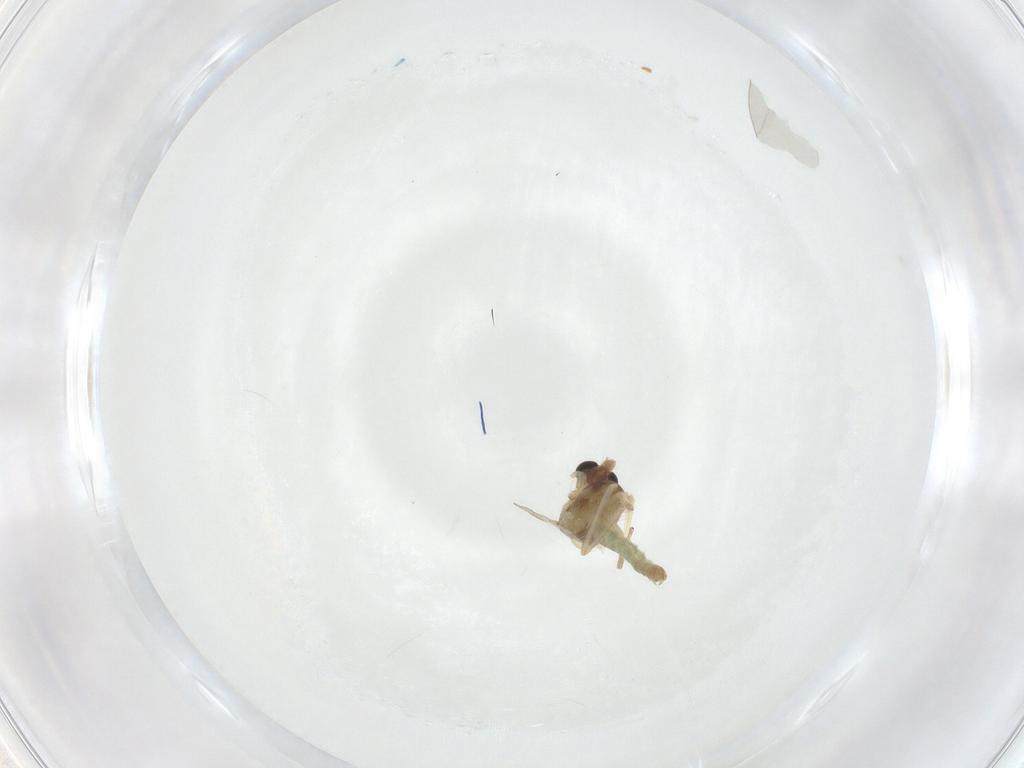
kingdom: Animalia
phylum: Arthropoda
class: Insecta
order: Diptera
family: Chironomidae
